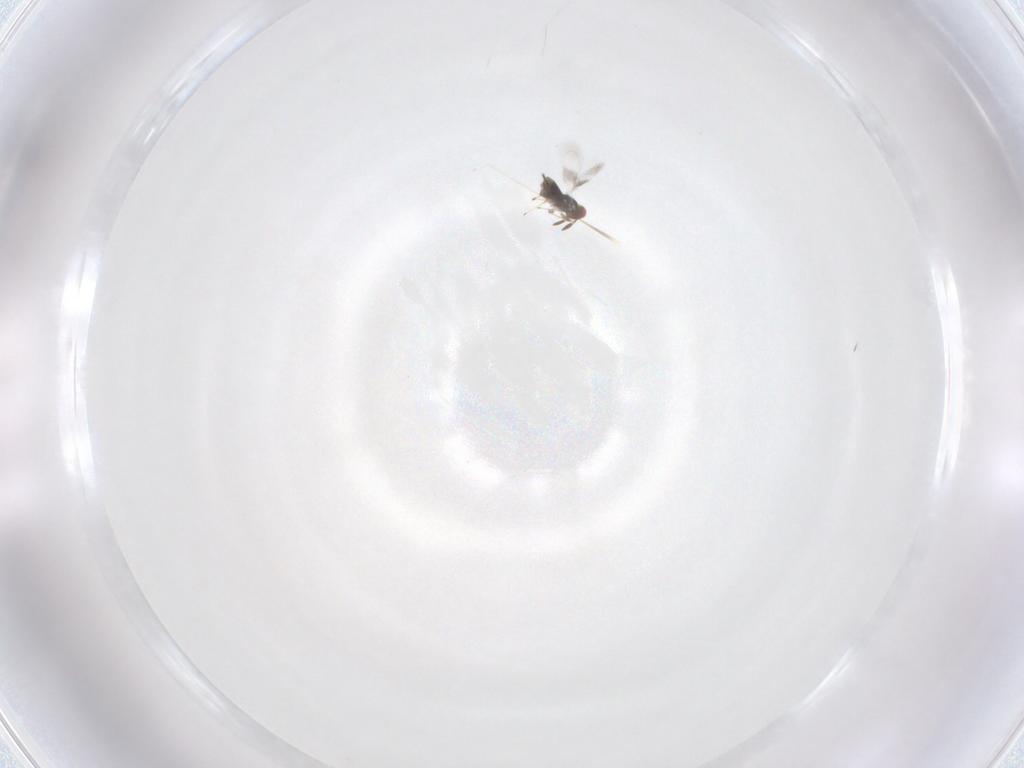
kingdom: Animalia
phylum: Arthropoda
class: Insecta
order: Hymenoptera
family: Azotidae
